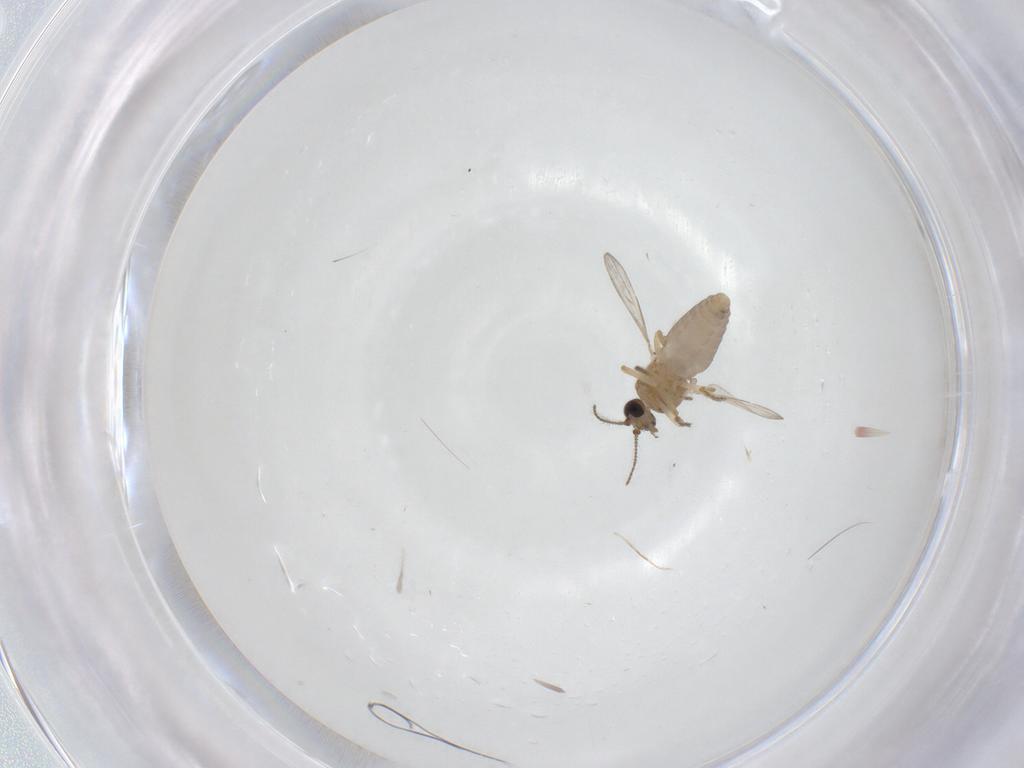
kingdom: Animalia
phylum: Arthropoda
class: Insecta
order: Diptera
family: Ceratopogonidae
